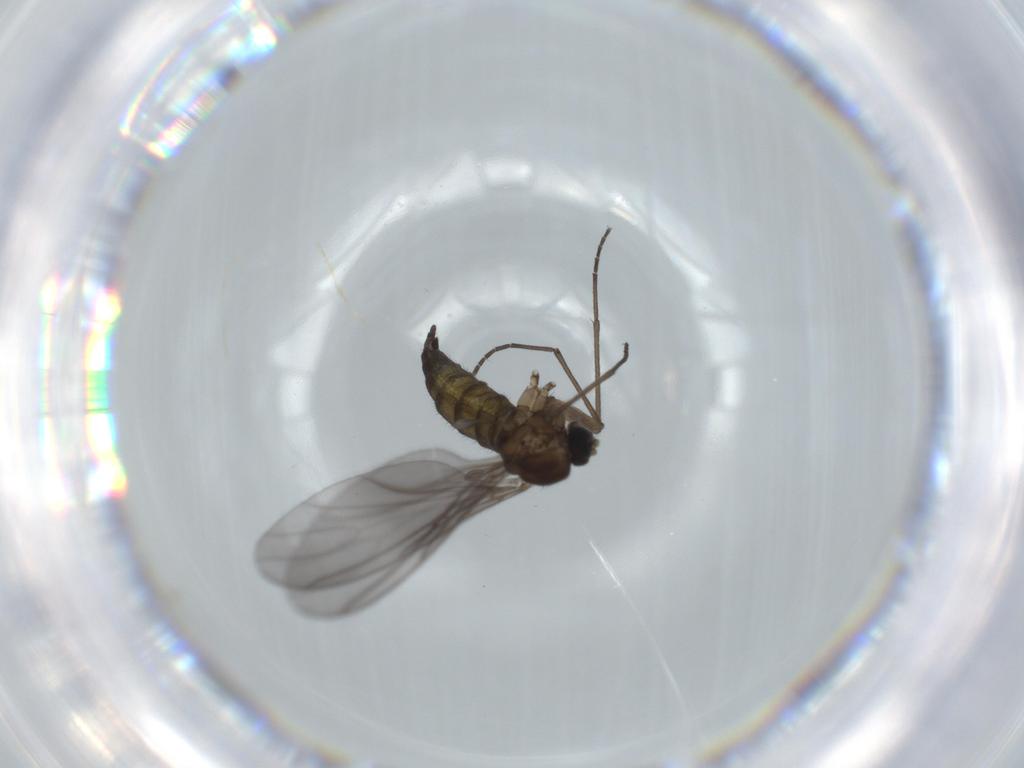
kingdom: Animalia
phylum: Arthropoda
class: Insecta
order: Diptera
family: Sciaridae
